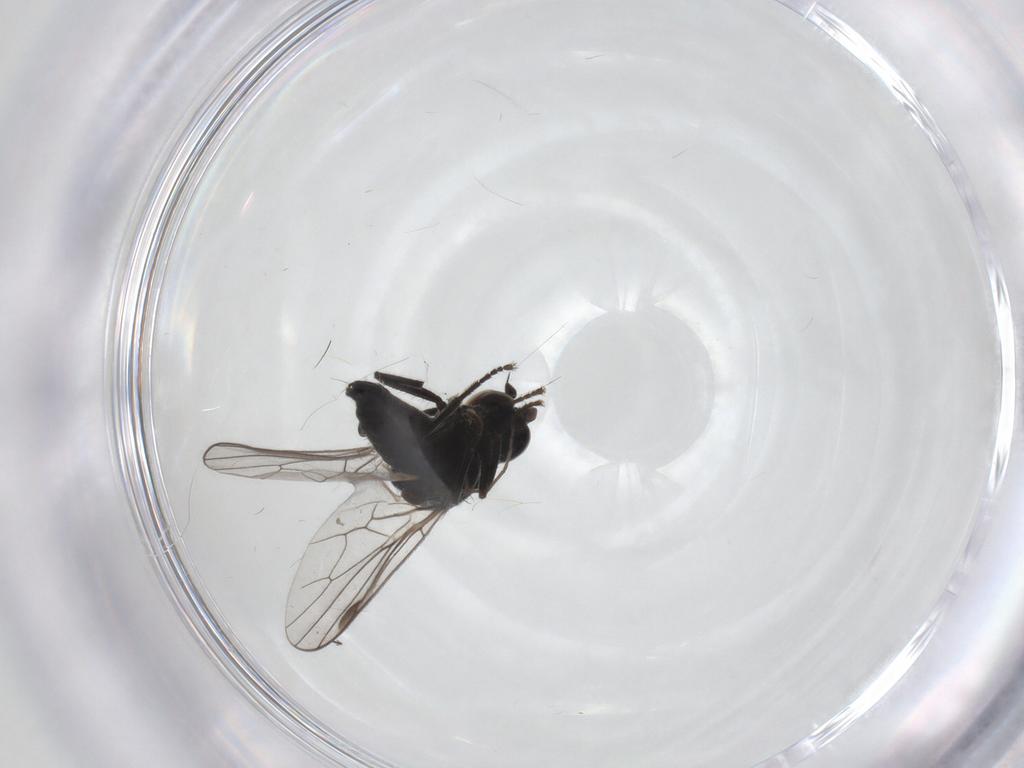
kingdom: Animalia
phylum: Arthropoda
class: Insecta
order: Diptera
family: Hybotidae
